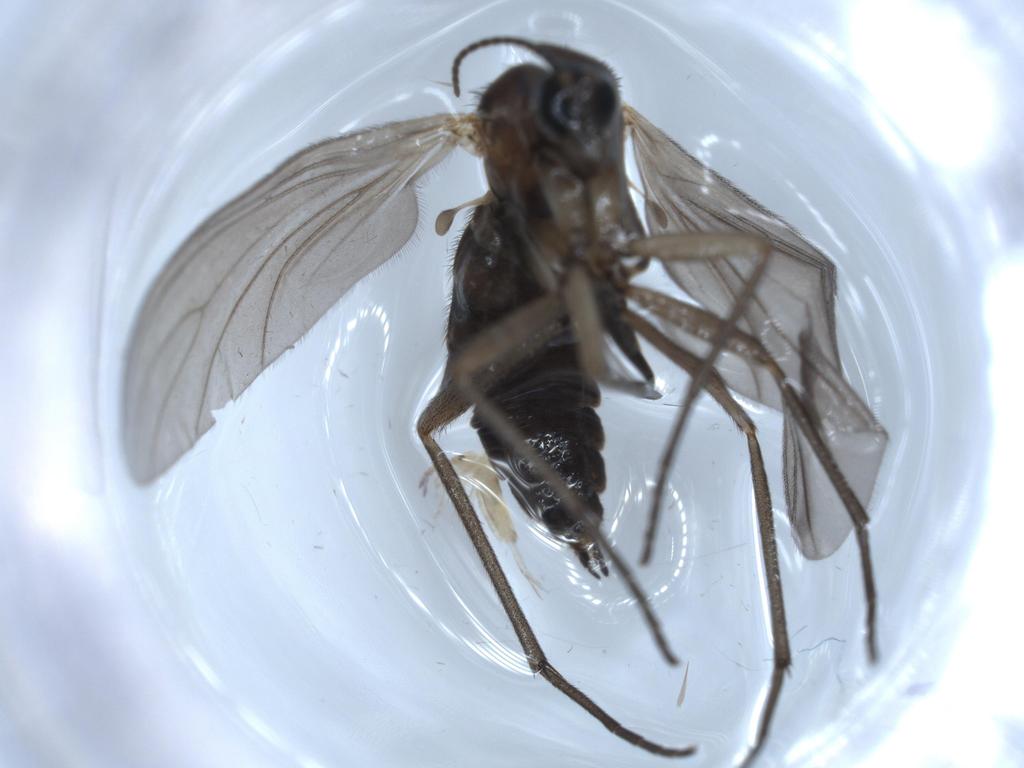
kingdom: Animalia
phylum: Arthropoda
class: Insecta
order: Diptera
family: Sciaridae
